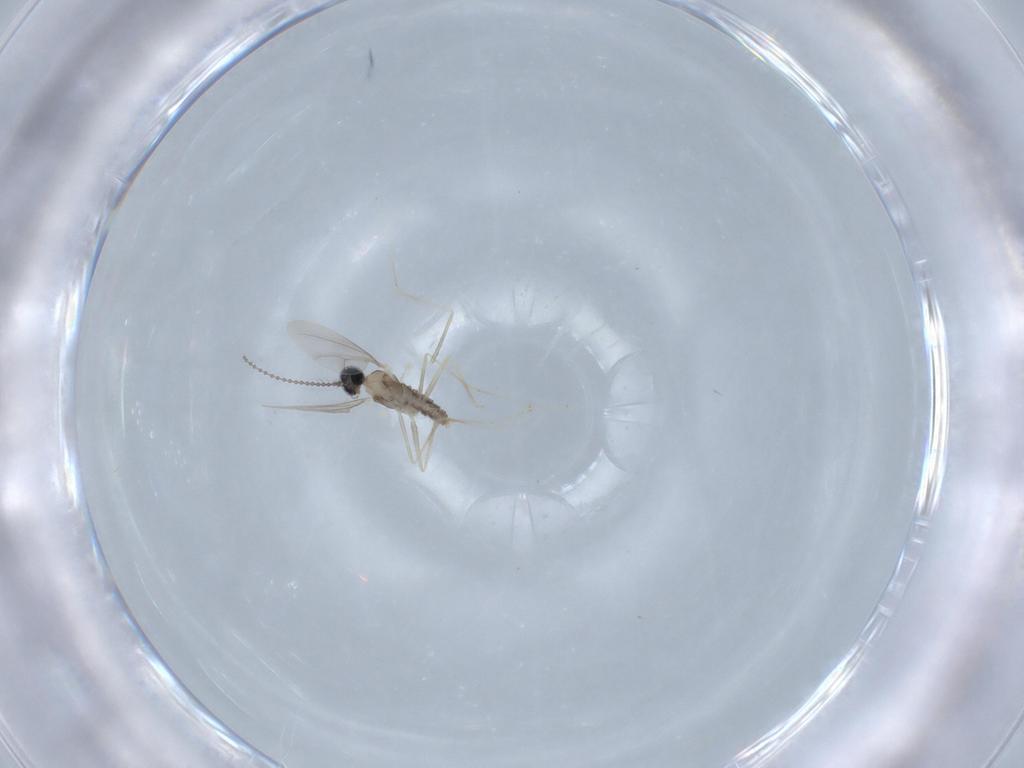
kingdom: Animalia
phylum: Arthropoda
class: Insecta
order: Diptera
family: Cecidomyiidae
